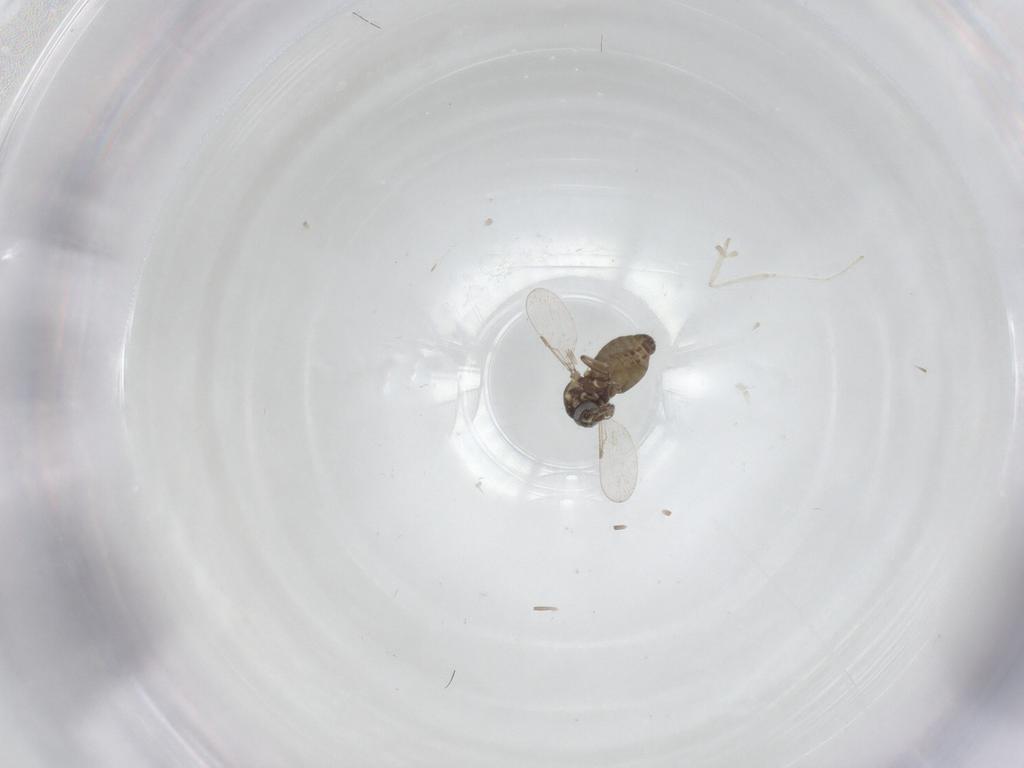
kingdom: Animalia
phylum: Arthropoda
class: Insecta
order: Diptera
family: Ceratopogonidae
